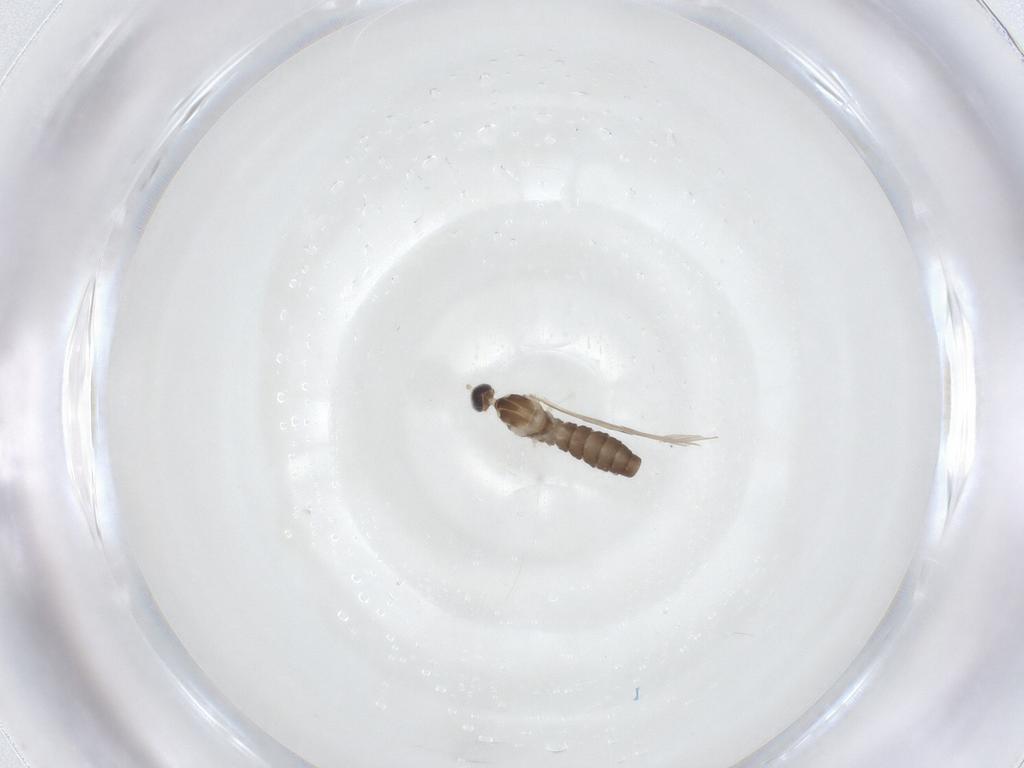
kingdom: Animalia
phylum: Arthropoda
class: Insecta
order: Diptera
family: Cecidomyiidae
